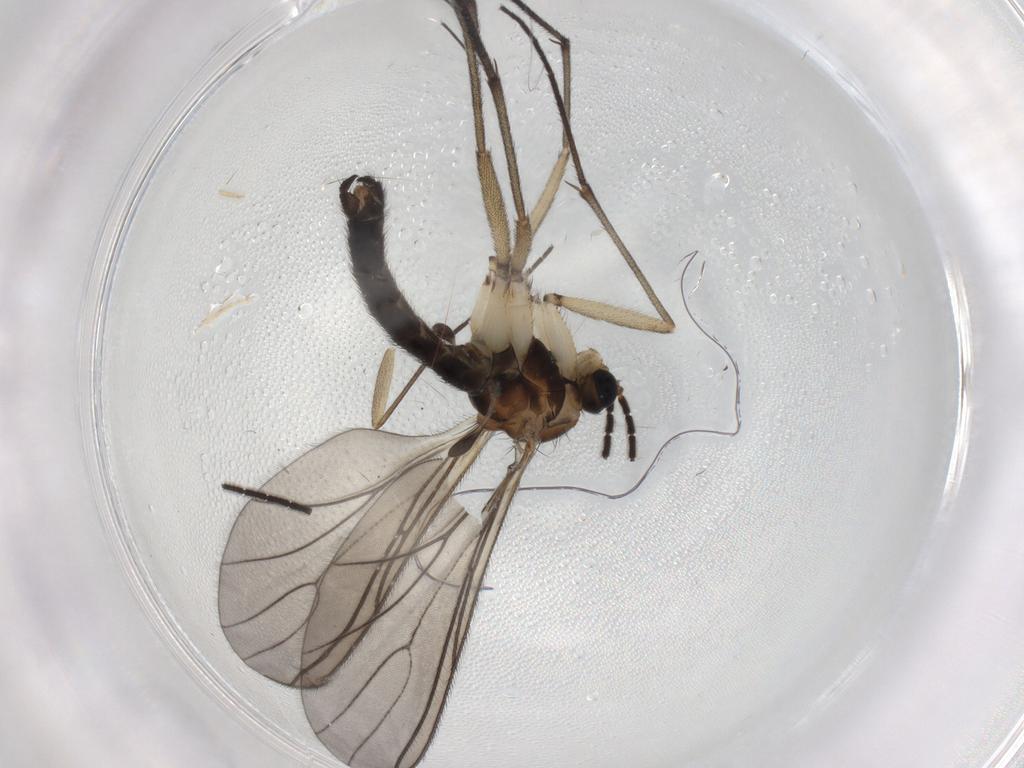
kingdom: Animalia
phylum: Arthropoda
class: Insecta
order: Diptera
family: Sciaridae
